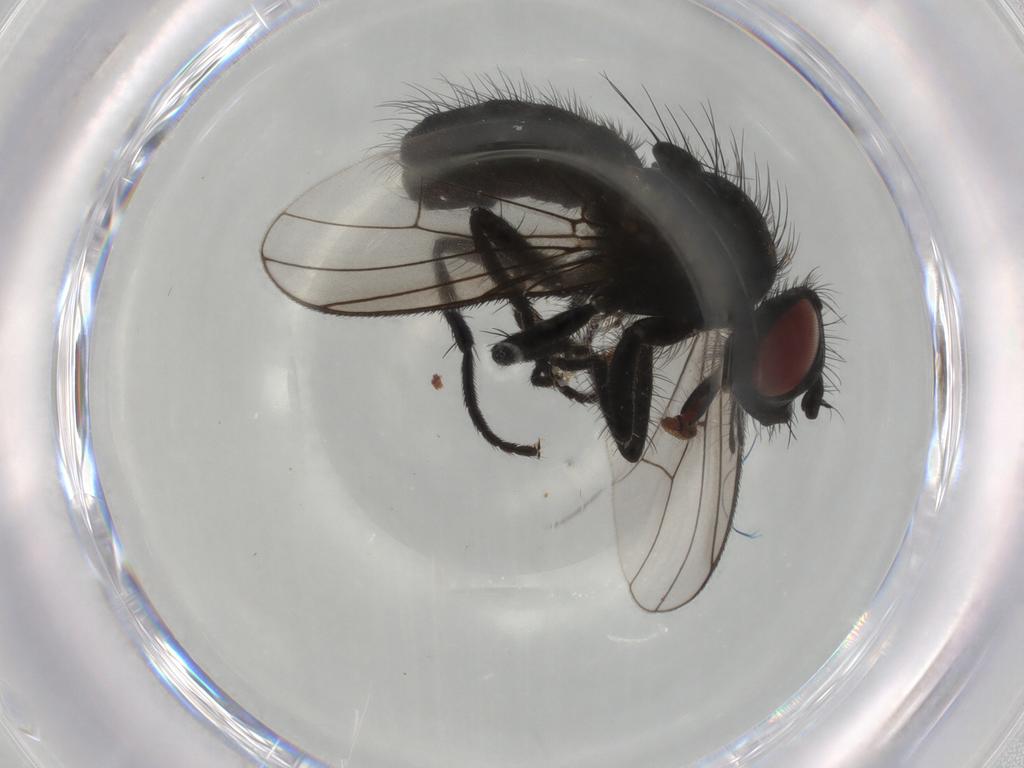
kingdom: Animalia
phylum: Arthropoda
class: Insecta
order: Diptera
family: Muscidae
